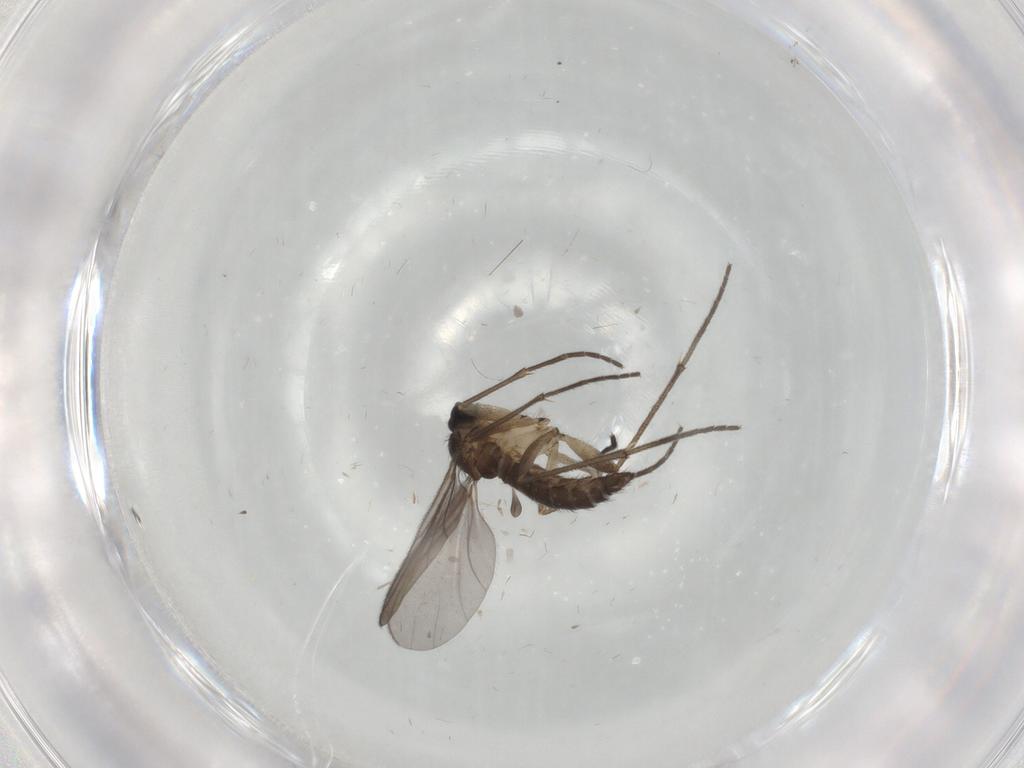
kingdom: Animalia
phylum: Arthropoda
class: Insecta
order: Diptera
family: Sciaridae
